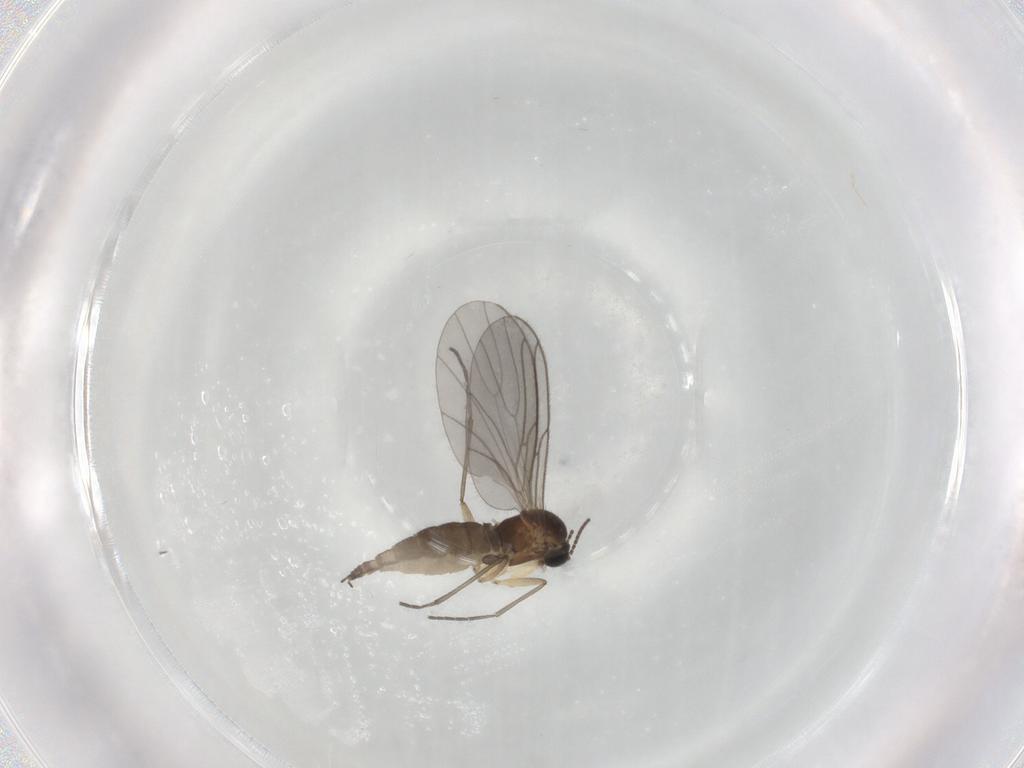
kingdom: Animalia
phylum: Arthropoda
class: Insecta
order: Diptera
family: Sciaridae
